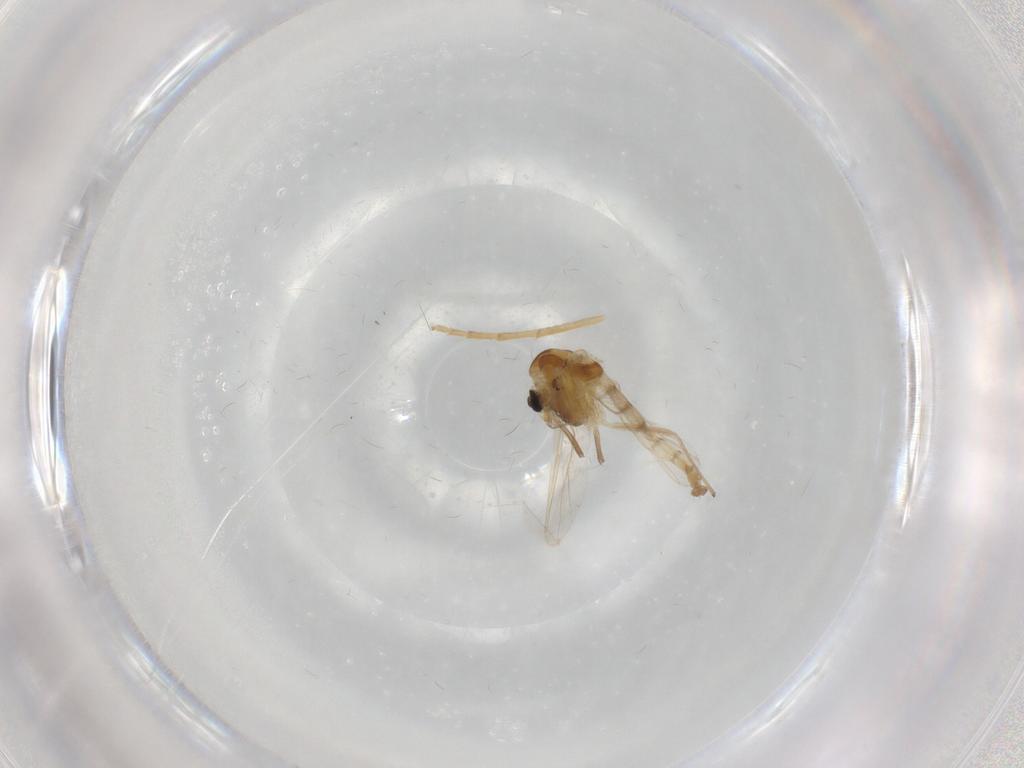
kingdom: Animalia
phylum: Arthropoda
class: Insecta
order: Diptera
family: Chironomidae
